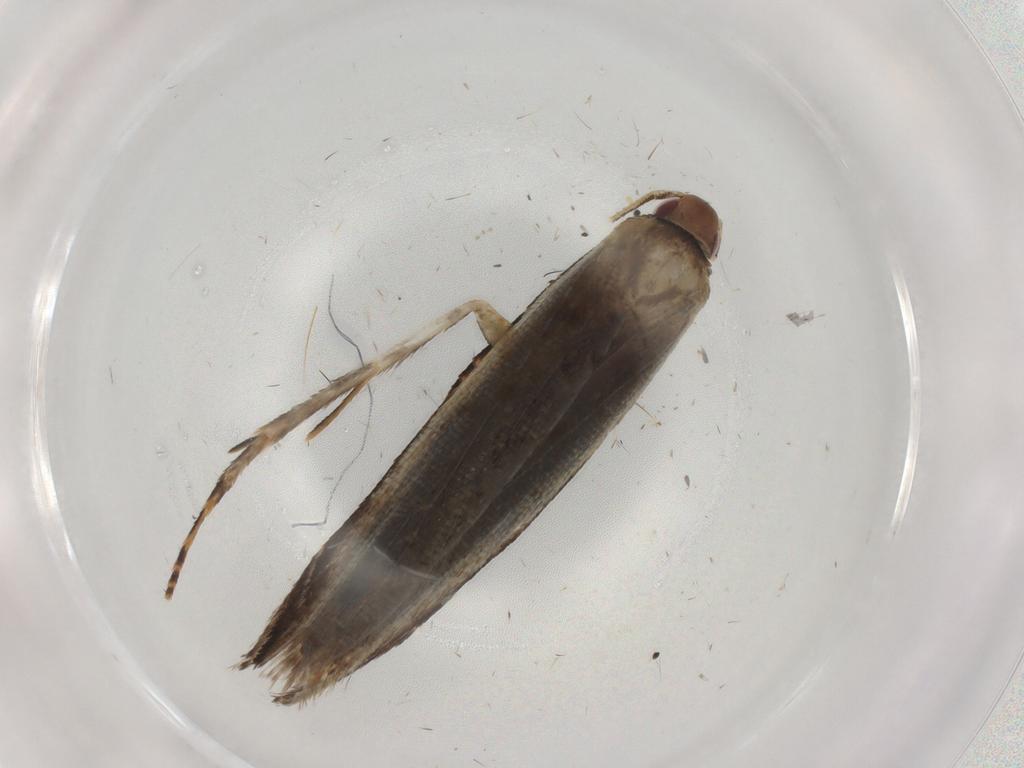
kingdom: Animalia
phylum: Arthropoda
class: Insecta
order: Lepidoptera
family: Gelechiidae
